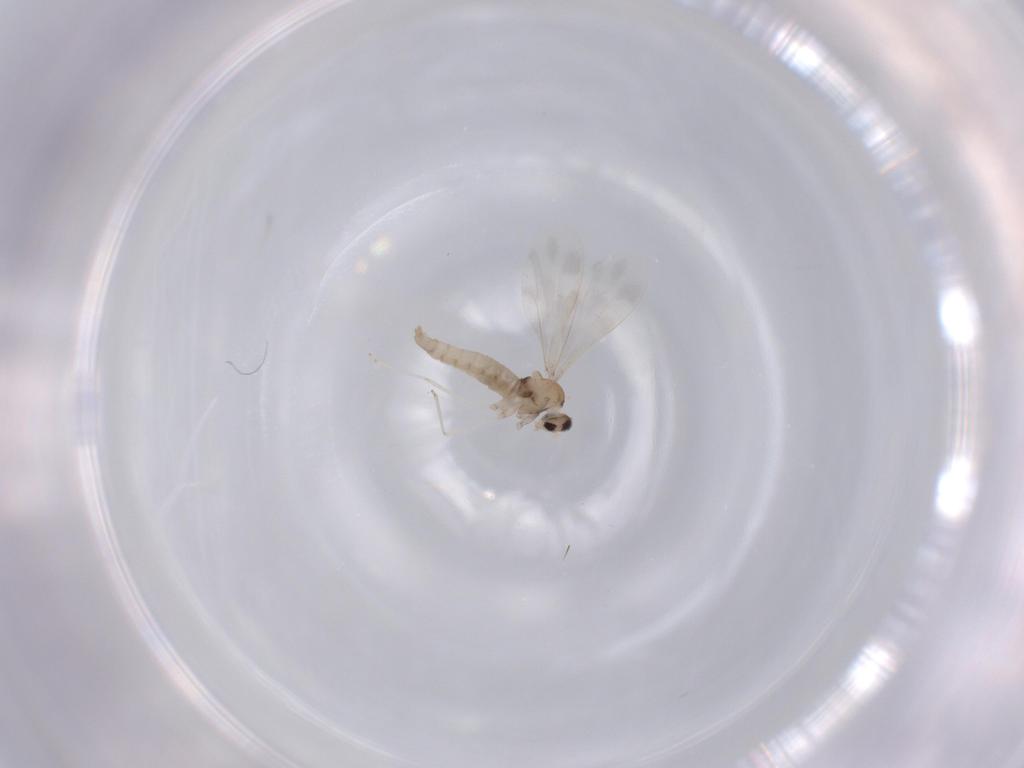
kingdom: Animalia
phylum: Arthropoda
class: Insecta
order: Diptera
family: Cecidomyiidae
